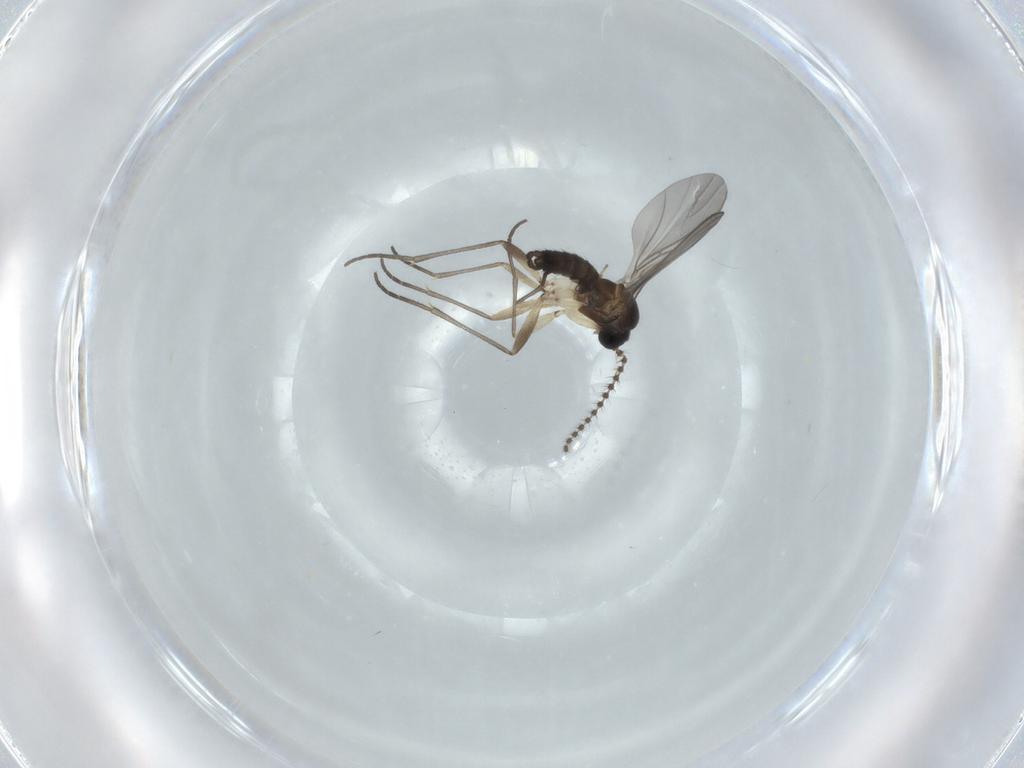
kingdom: Animalia
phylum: Arthropoda
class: Insecta
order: Diptera
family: Sciaridae
